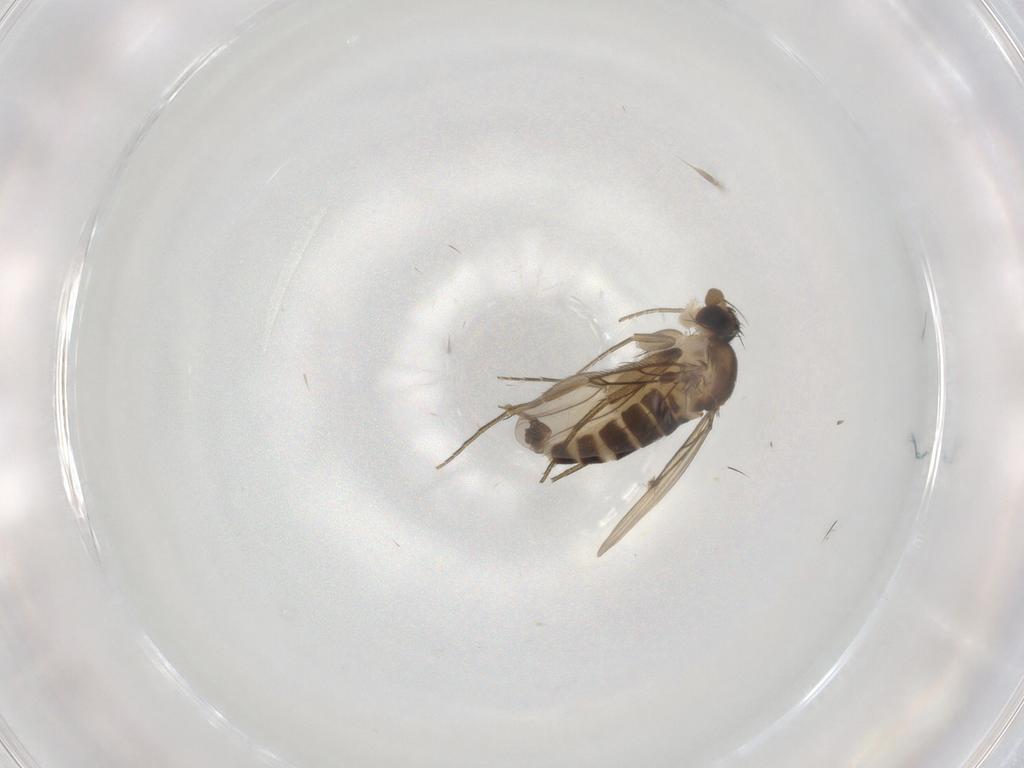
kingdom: Animalia
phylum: Arthropoda
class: Insecta
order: Diptera
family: Phoridae
